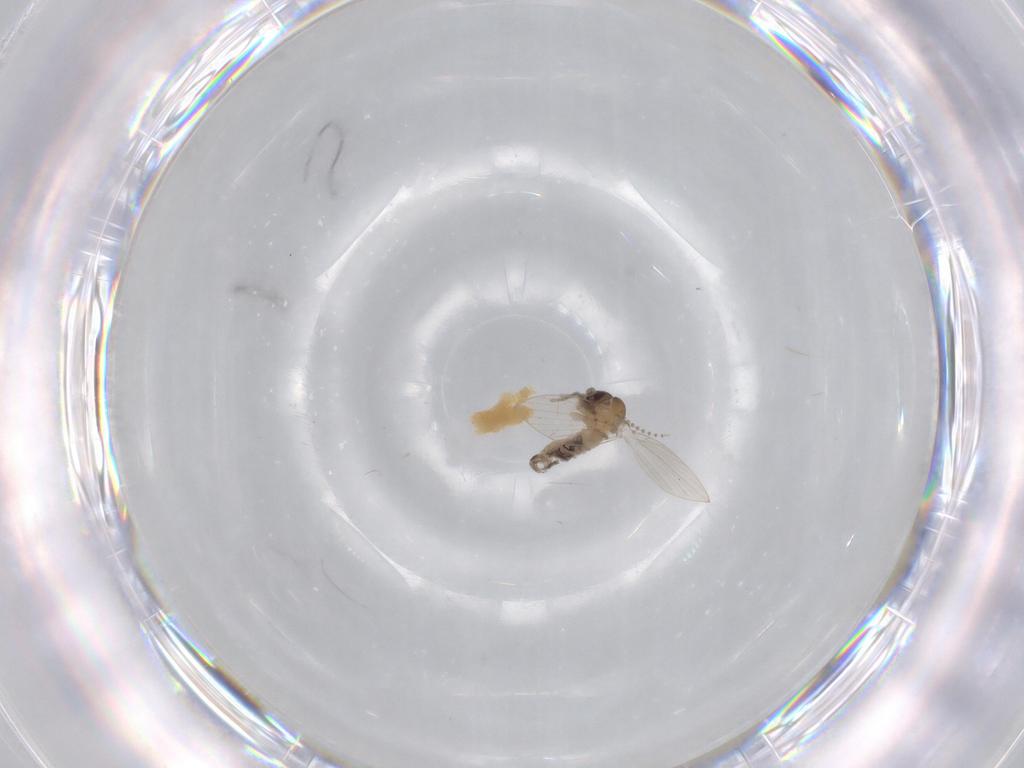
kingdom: Animalia
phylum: Arthropoda
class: Insecta
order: Diptera
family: Psychodidae
